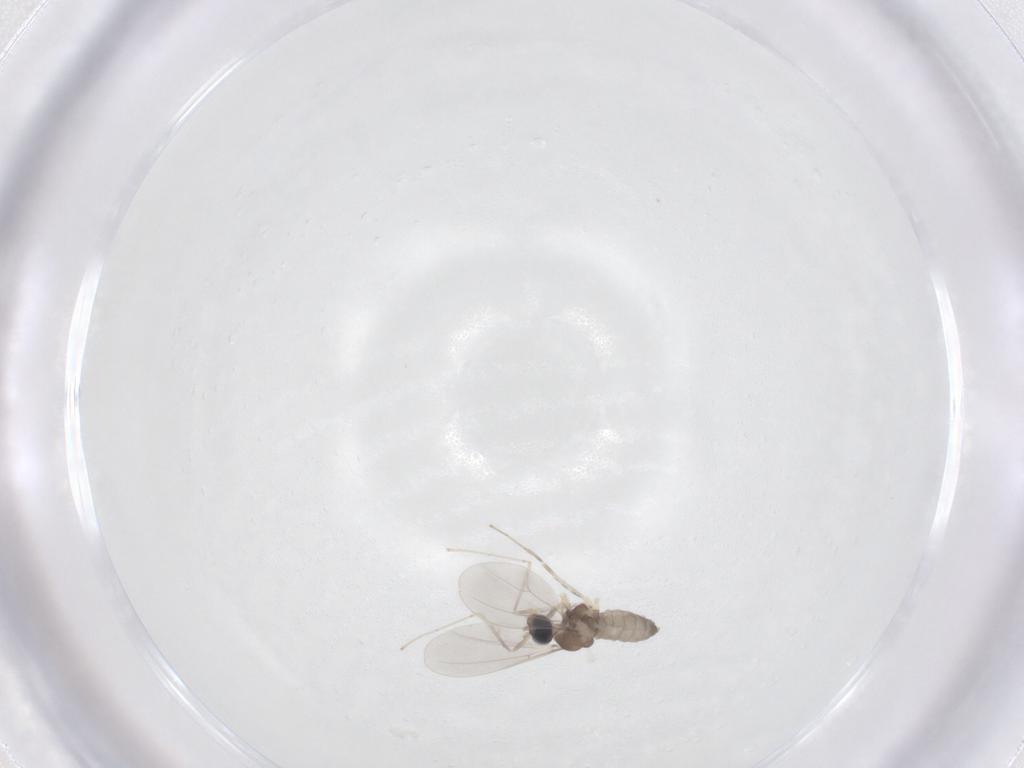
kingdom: Animalia
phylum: Arthropoda
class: Insecta
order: Diptera
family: Cecidomyiidae
